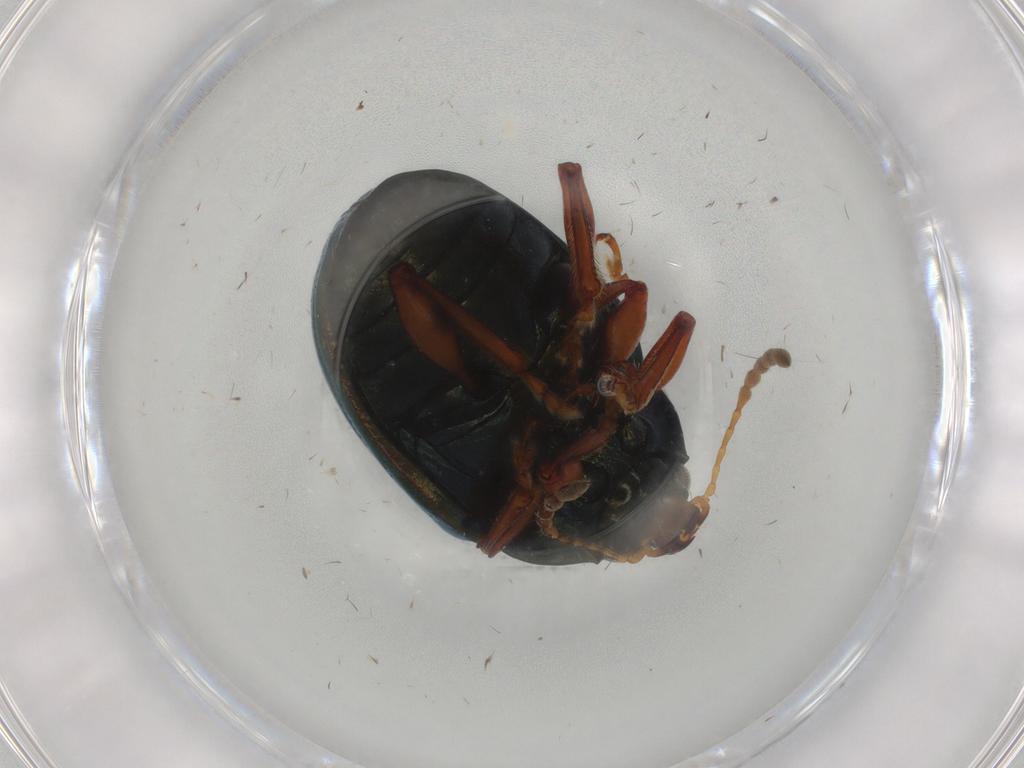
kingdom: Animalia
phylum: Arthropoda
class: Insecta
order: Coleoptera
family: Chrysomelidae
